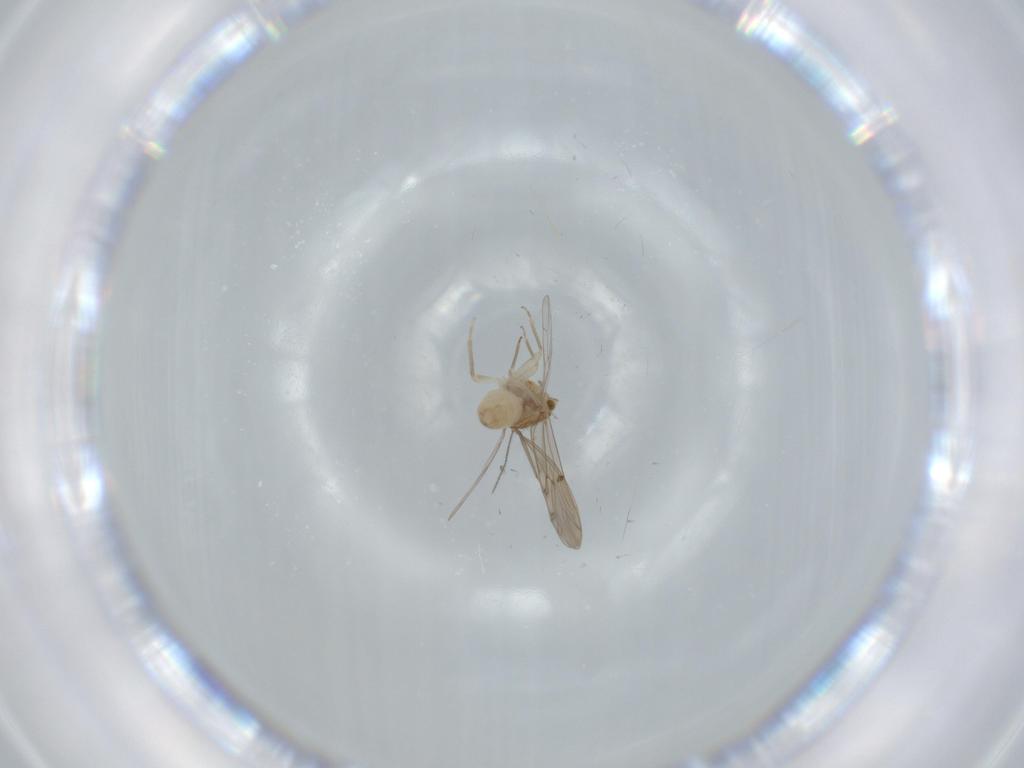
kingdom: Animalia
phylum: Arthropoda
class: Insecta
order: Psocodea
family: Ectopsocidae
